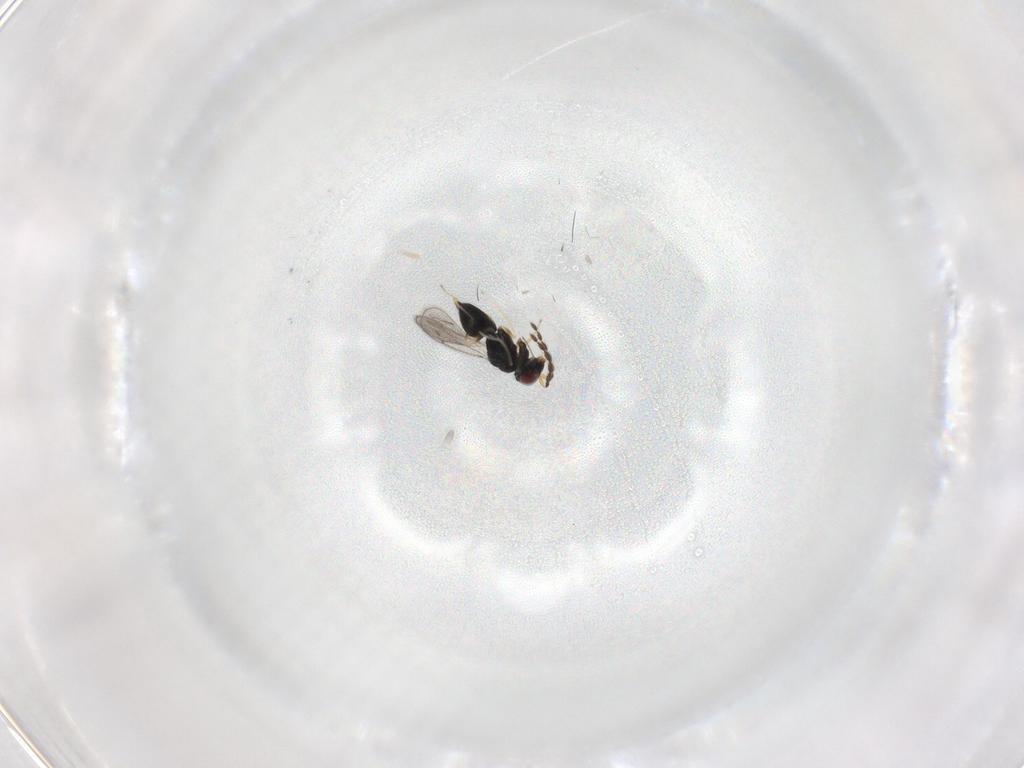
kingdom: Animalia
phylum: Arthropoda
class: Insecta
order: Hymenoptera
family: Eulophidae
